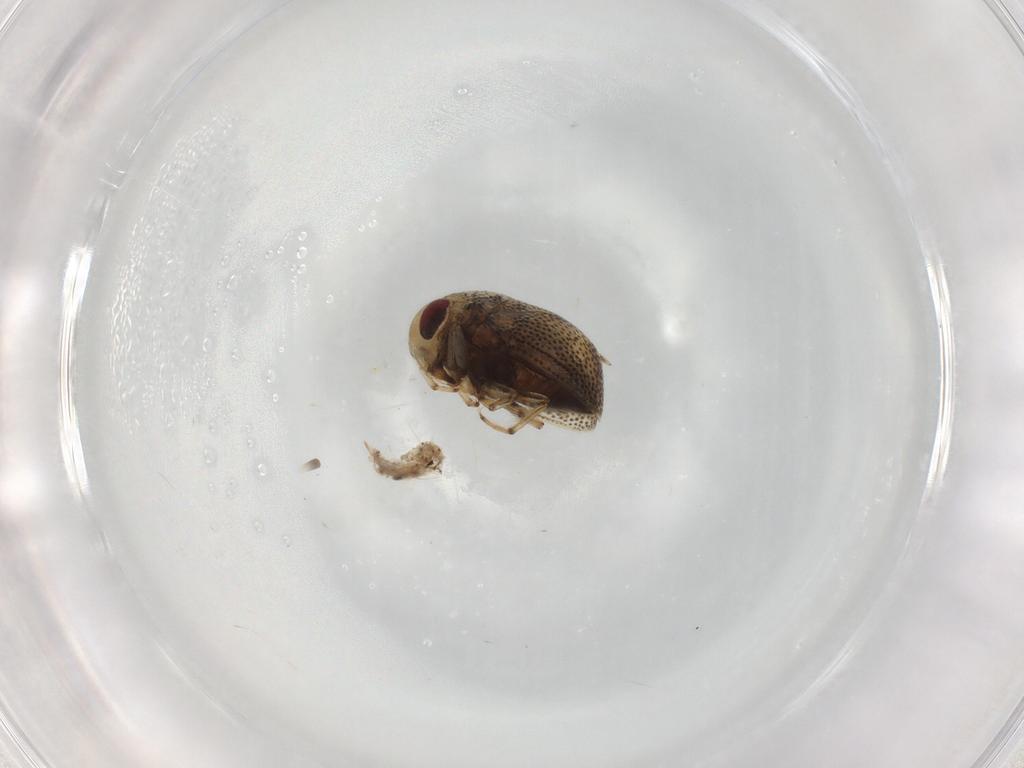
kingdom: Animalia
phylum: Arthropoda
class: Insecta
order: Hemiptera
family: Pleidae
